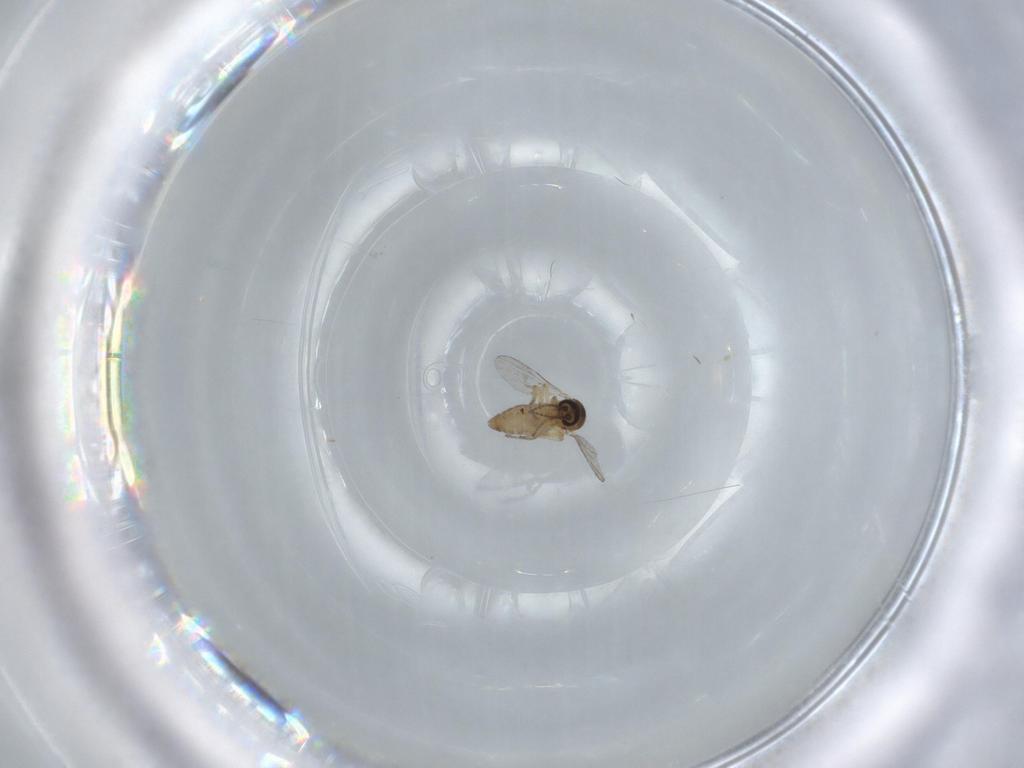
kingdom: Animalia
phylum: Arthropoda
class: Insecta
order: Diptera
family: Ceratopogonidae
